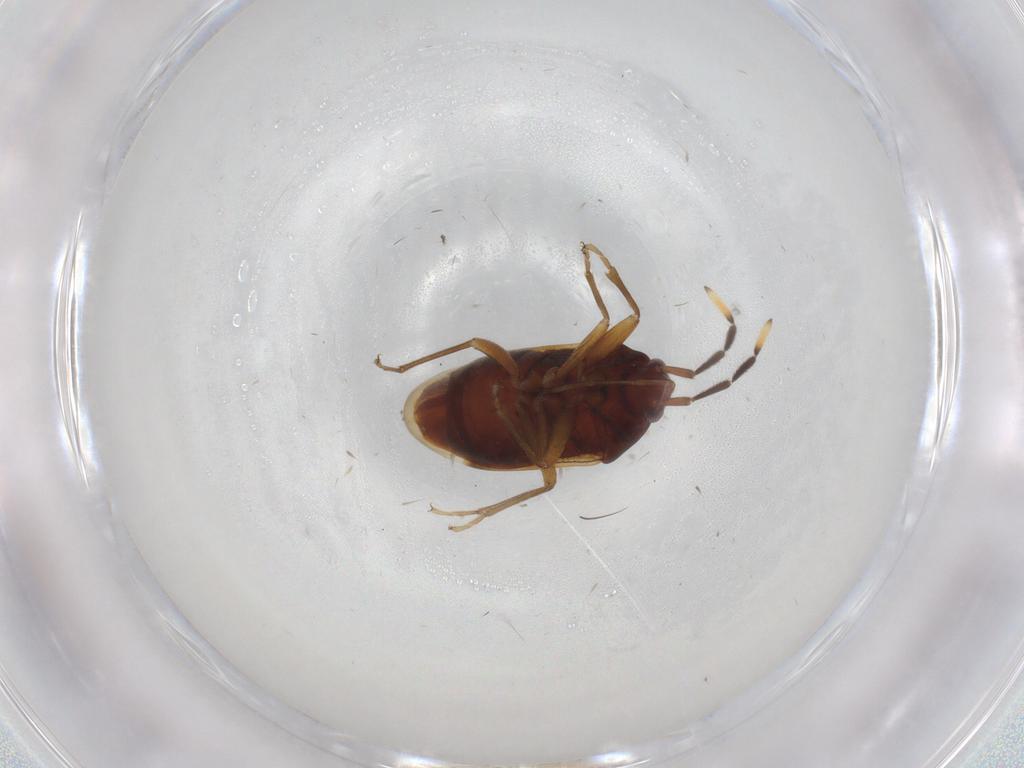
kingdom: Animalia
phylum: Arthropoda
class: Insecta
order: Hemiptera
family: Rhyparochromidae
